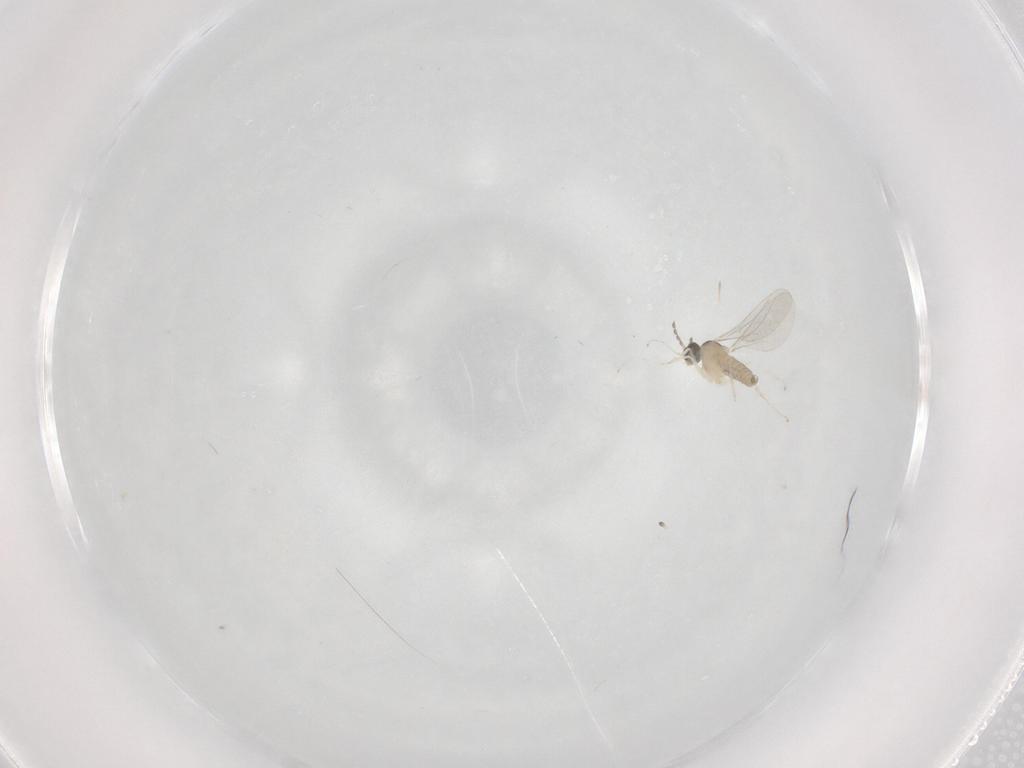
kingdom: Animalia
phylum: Arthropoda
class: Insecta
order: Diptera
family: Cecidomyiidae
